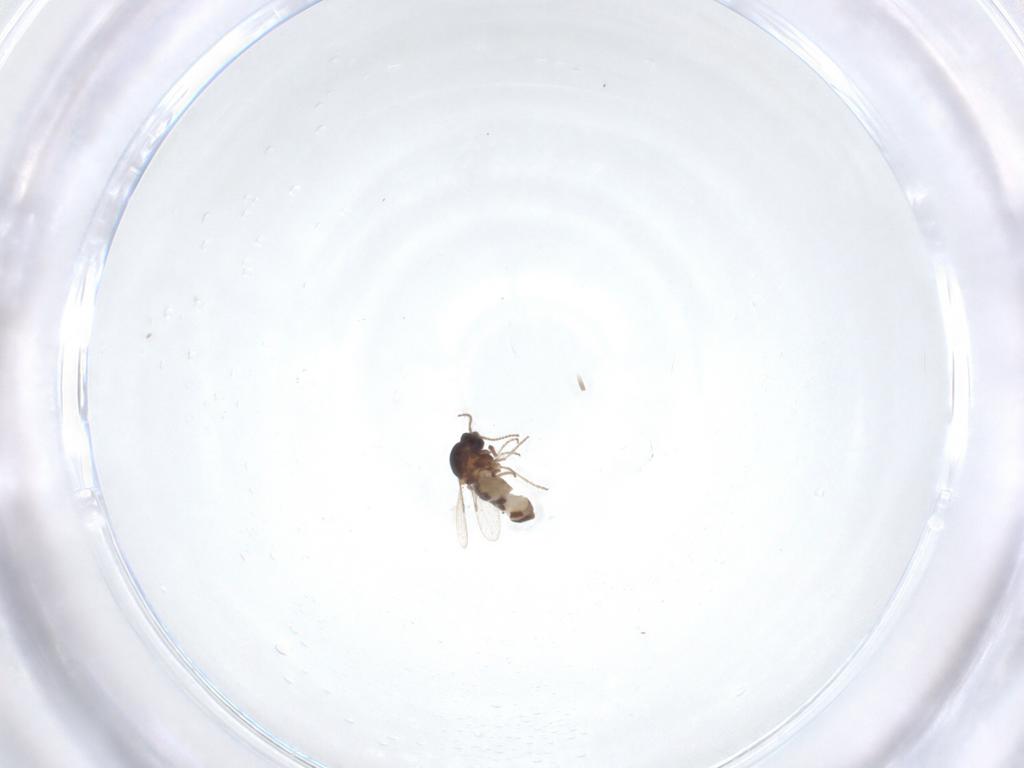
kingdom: Animalia
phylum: Arthropoda
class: Insecta
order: Diptera
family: Ceratopogonidae
